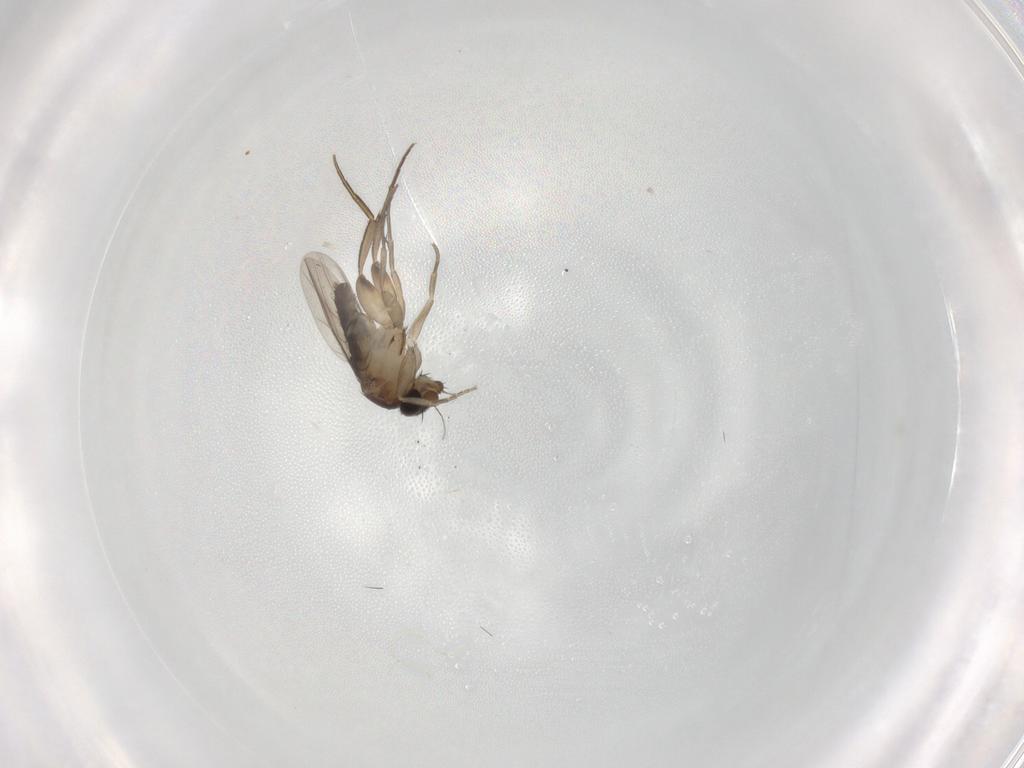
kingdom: Animalia
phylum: Arthropoda
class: Insecta
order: Diptera
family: Phoridae
